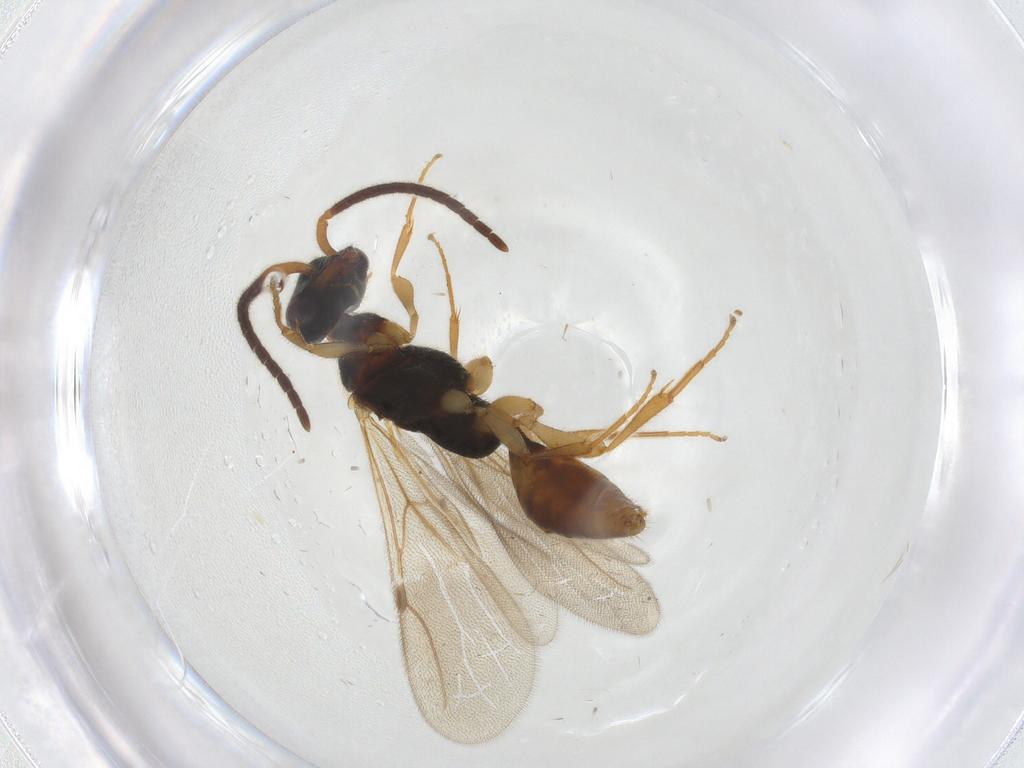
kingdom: Animalia
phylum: Arthropoda
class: Insecta
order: Hymenoptera
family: Bethylidae
